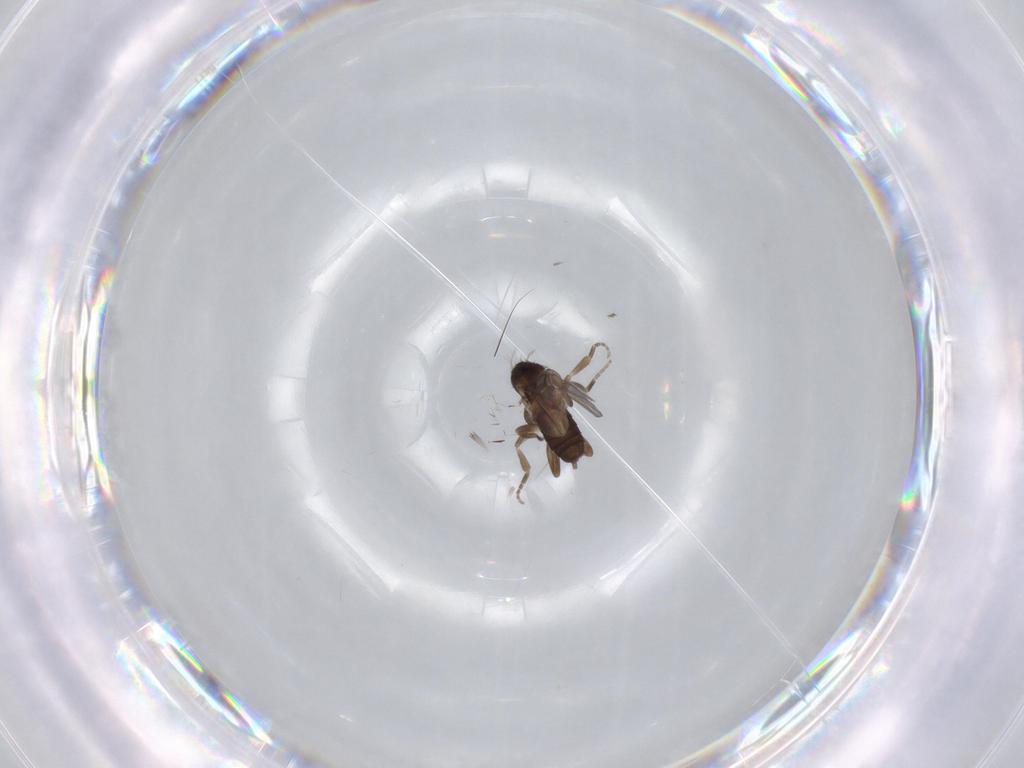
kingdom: Animalia
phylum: Arthropoda
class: Insecta
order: Diptera
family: Phoridae
